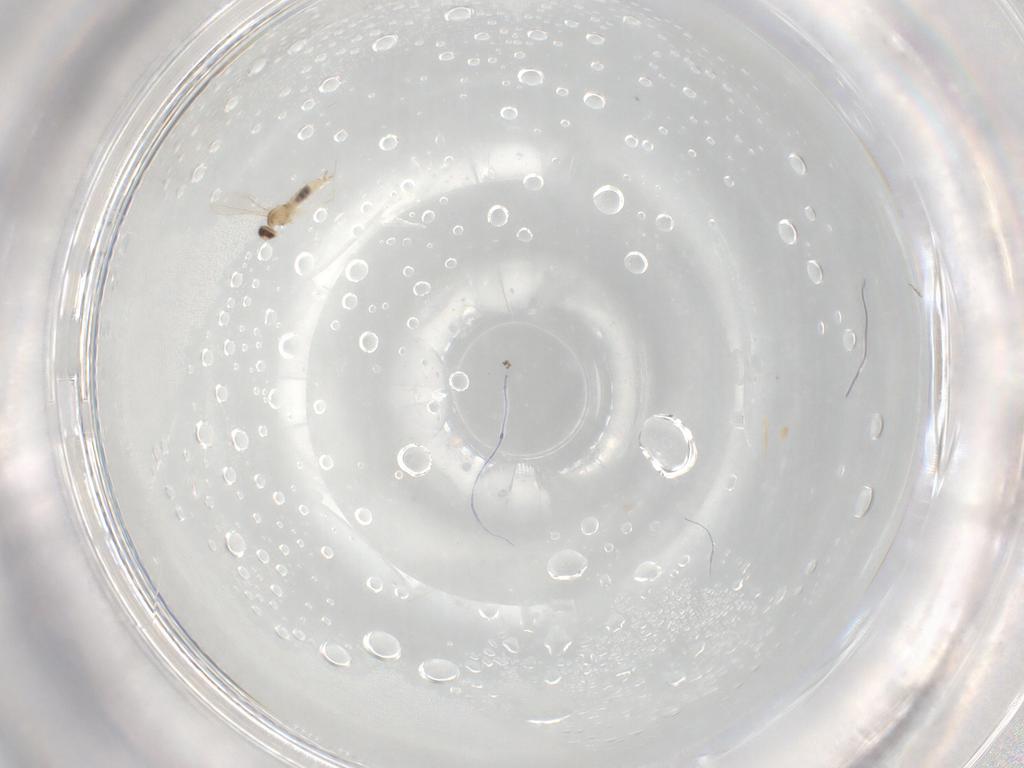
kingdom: Animalia
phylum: Arthropoda
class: Insecta
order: Diptera
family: Cecidomyiidae
